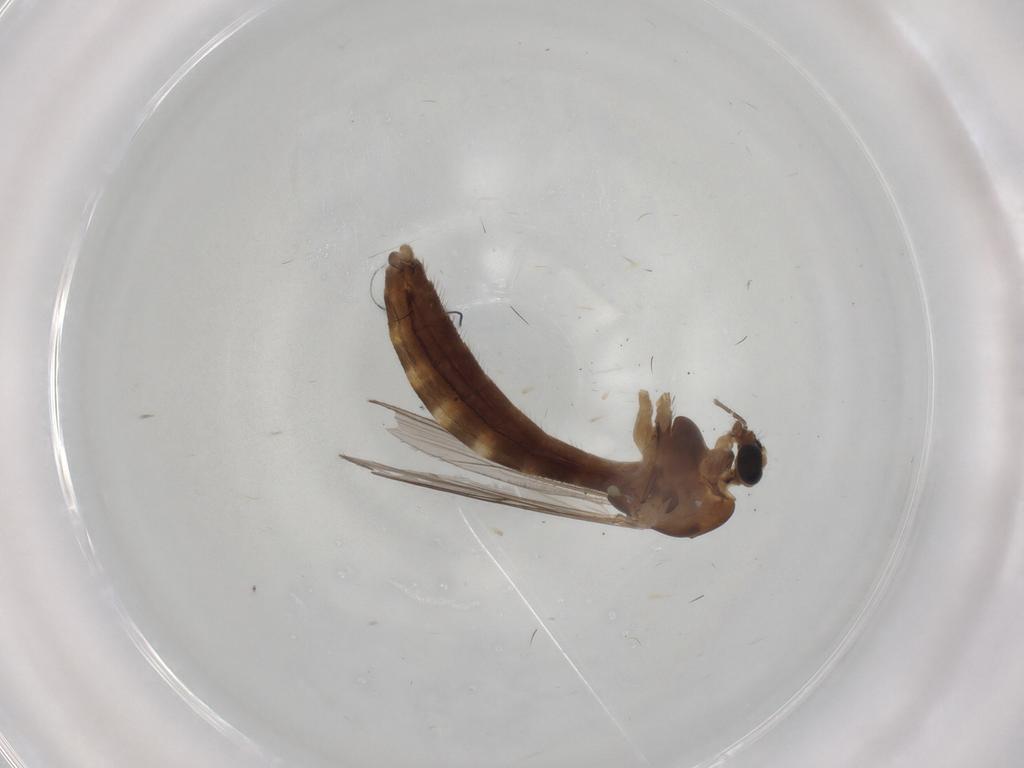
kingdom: Animalia
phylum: Arthropoda
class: Insecta
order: Diptera
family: Chironomidae
